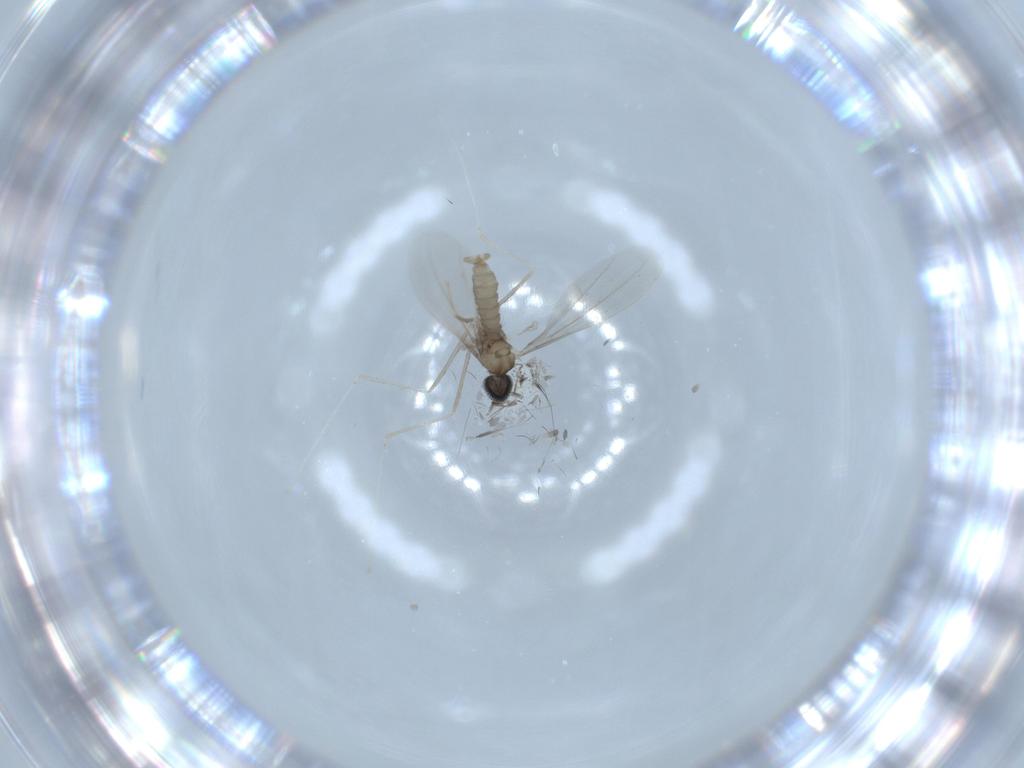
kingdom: Animalia
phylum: Arthropoda
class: Insecta
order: Diptera
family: Cecidomyiidae
